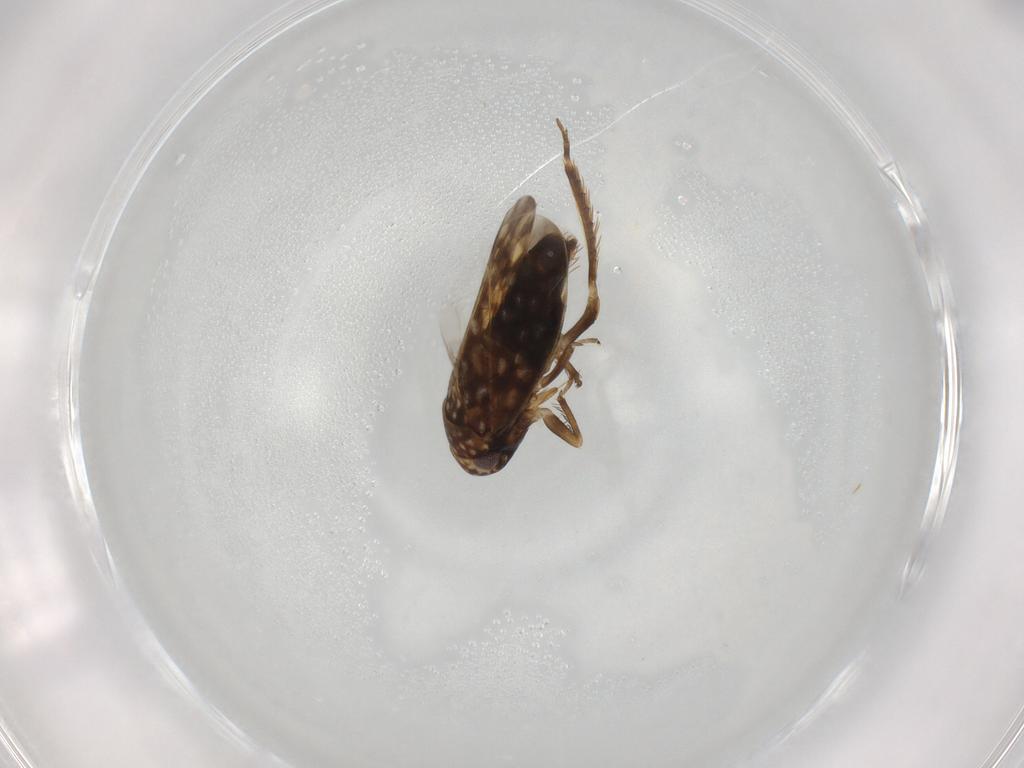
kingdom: Animalia
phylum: Arthropoda
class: Insecta
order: Hemiptera
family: Cicadellidae
